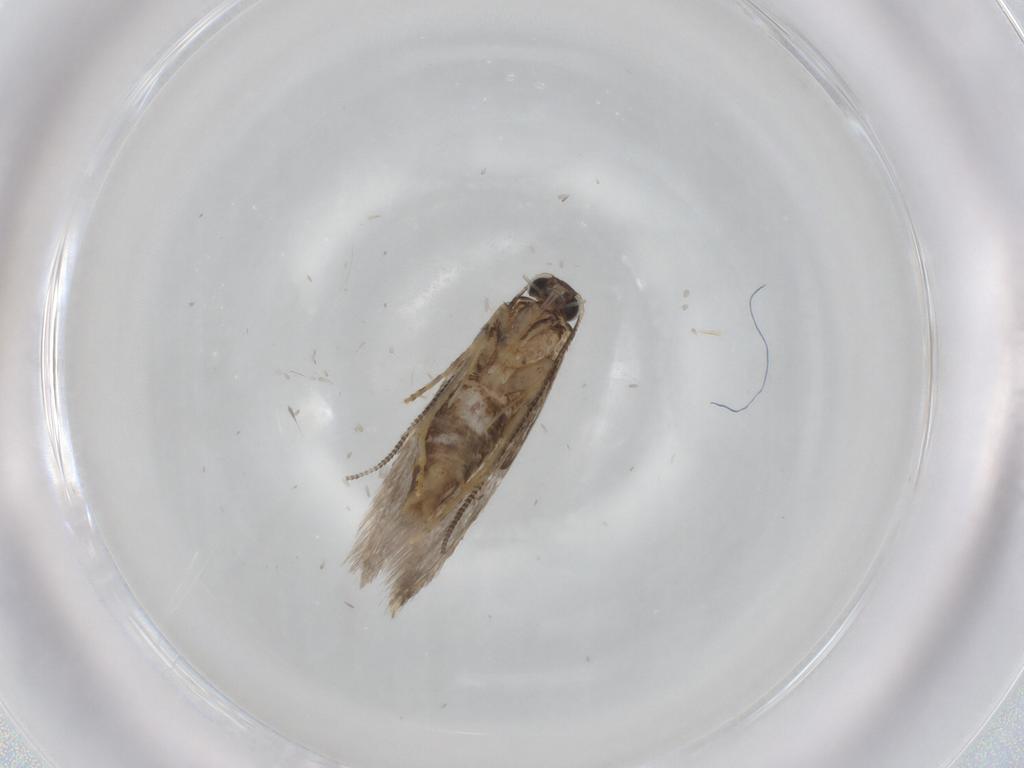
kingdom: Animalia
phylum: Arthropoda
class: Insecta
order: Lepidoptera
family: Tineidae
